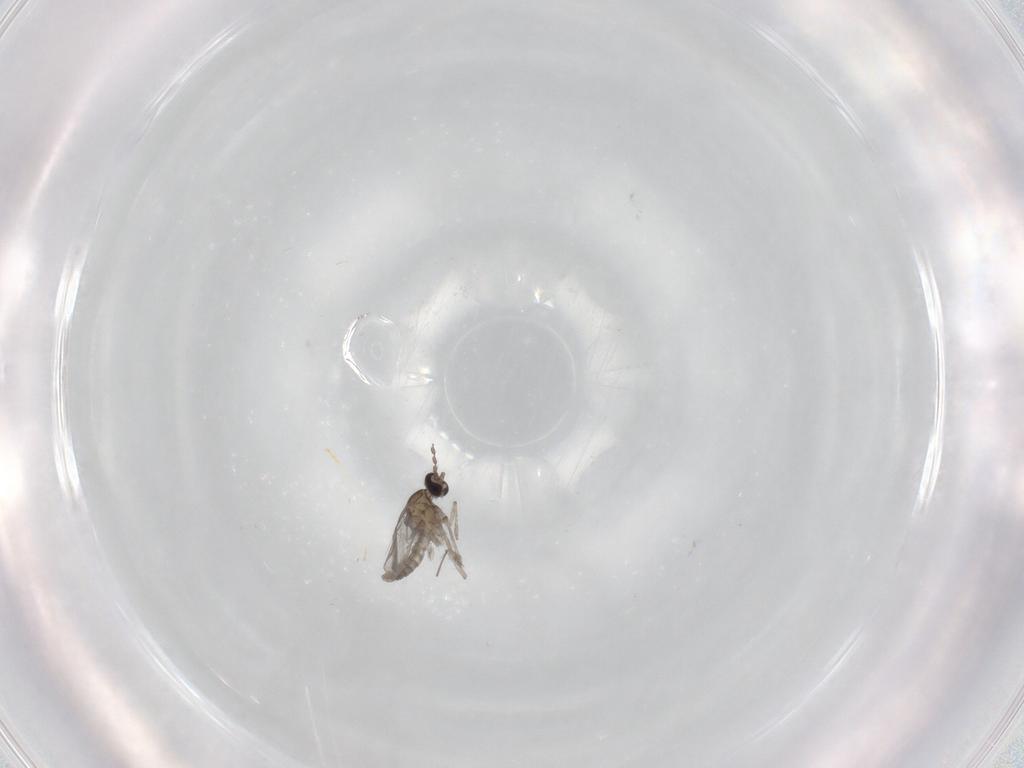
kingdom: Animalia
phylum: Arthropoda
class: Insecta
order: Diptera
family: Cecidomyiidae
